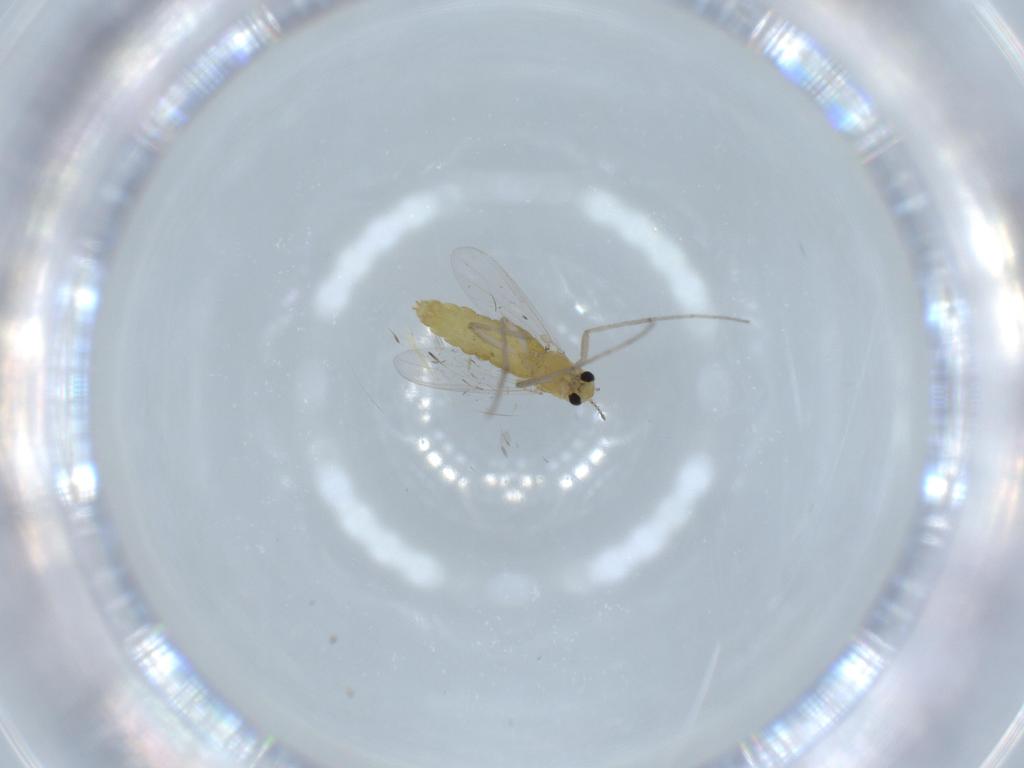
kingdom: Animalia
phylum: Arthropoda
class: Insecta
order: Diptera
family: Chironomidae
